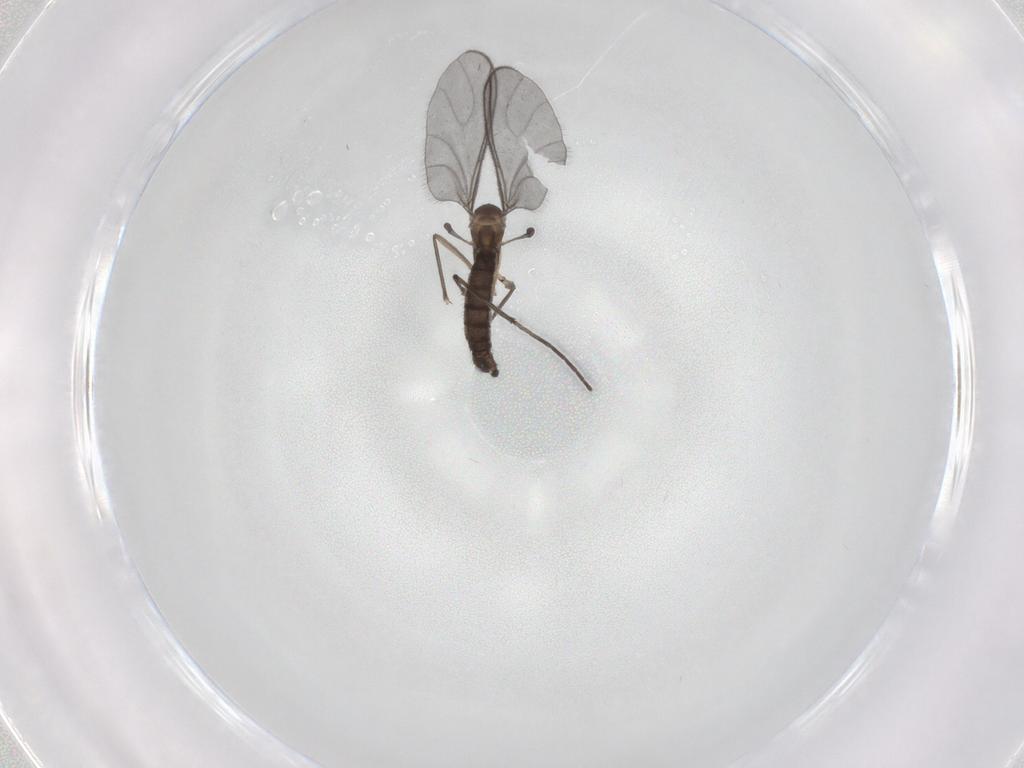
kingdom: Animalia
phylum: Arthropoda
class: Insecta
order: Diptera
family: Sciaridae
